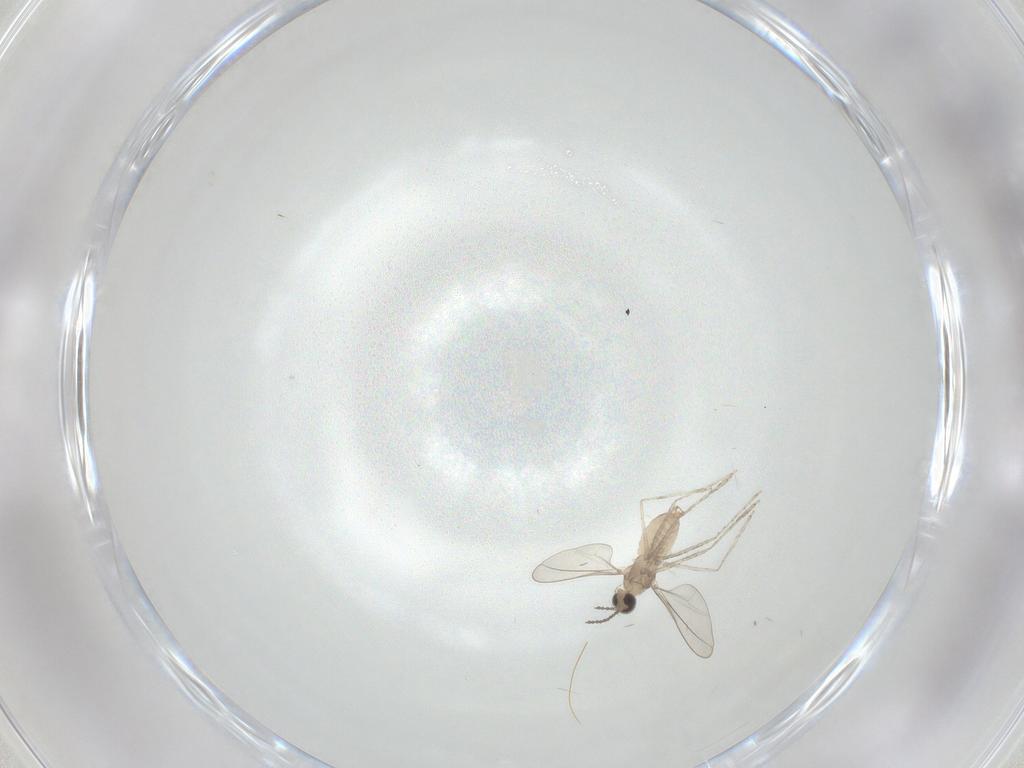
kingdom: Animalia
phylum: Arthropoda
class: Insecta
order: Diptera
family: Cecidomyiidae
